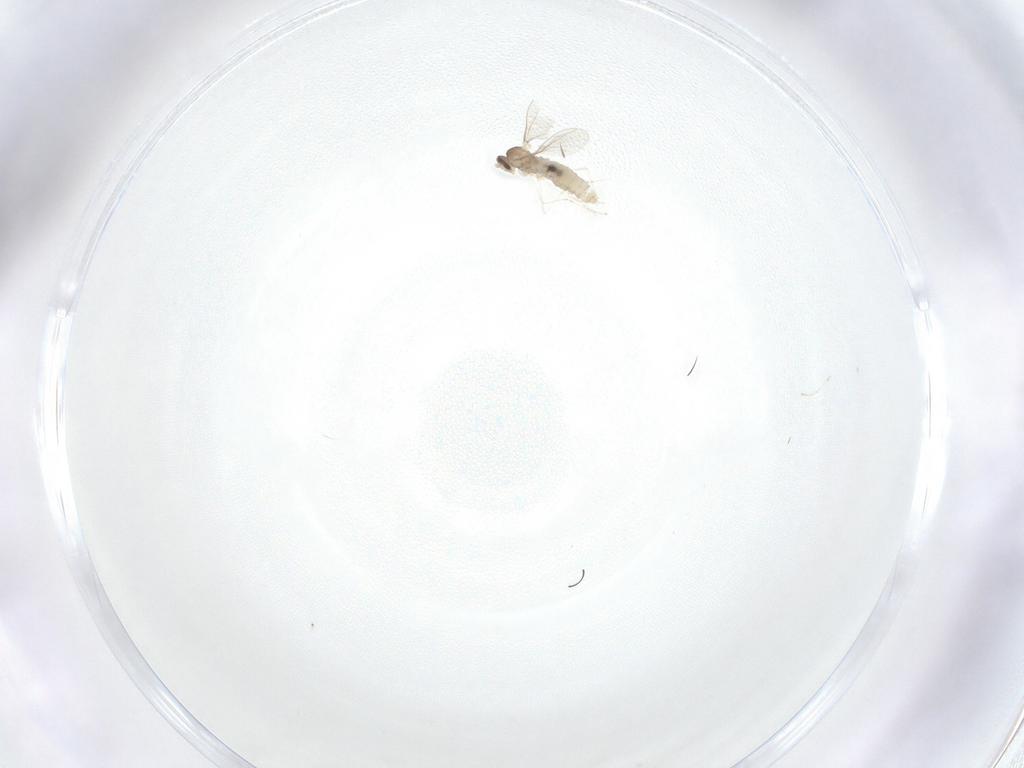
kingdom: Animalia
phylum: Arthropoda
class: Insecta
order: Diptera
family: Cecidomyiidae
